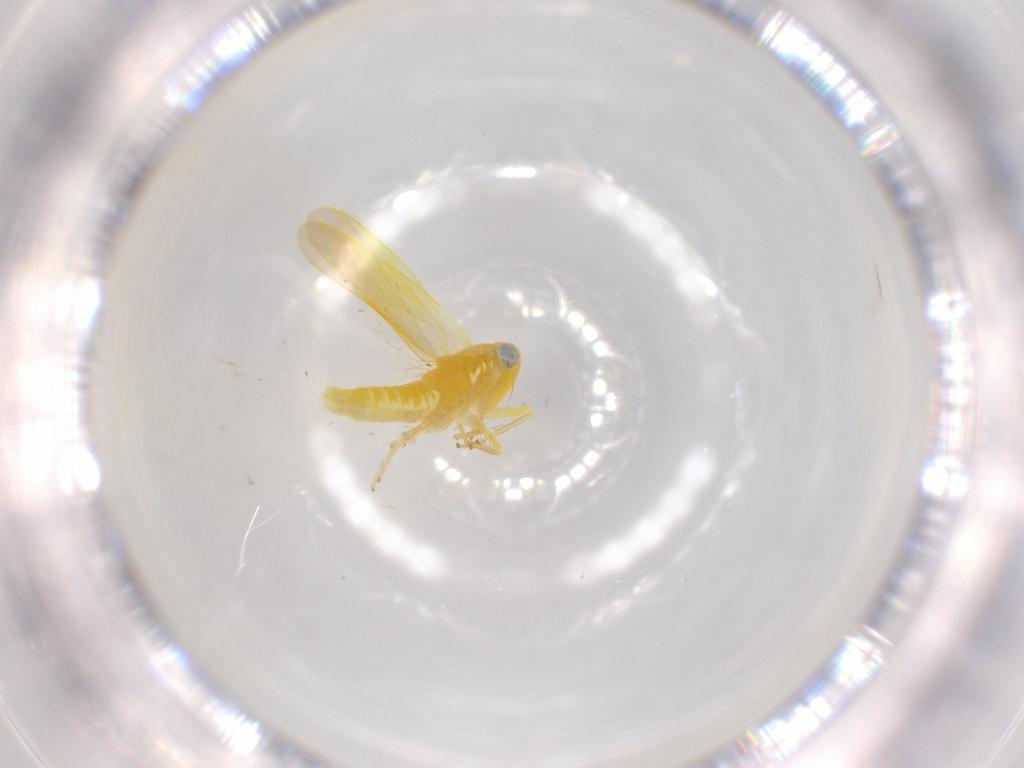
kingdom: Animalia
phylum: Arthropoda
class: Insecta
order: Hemiptera
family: Cicadellidae
